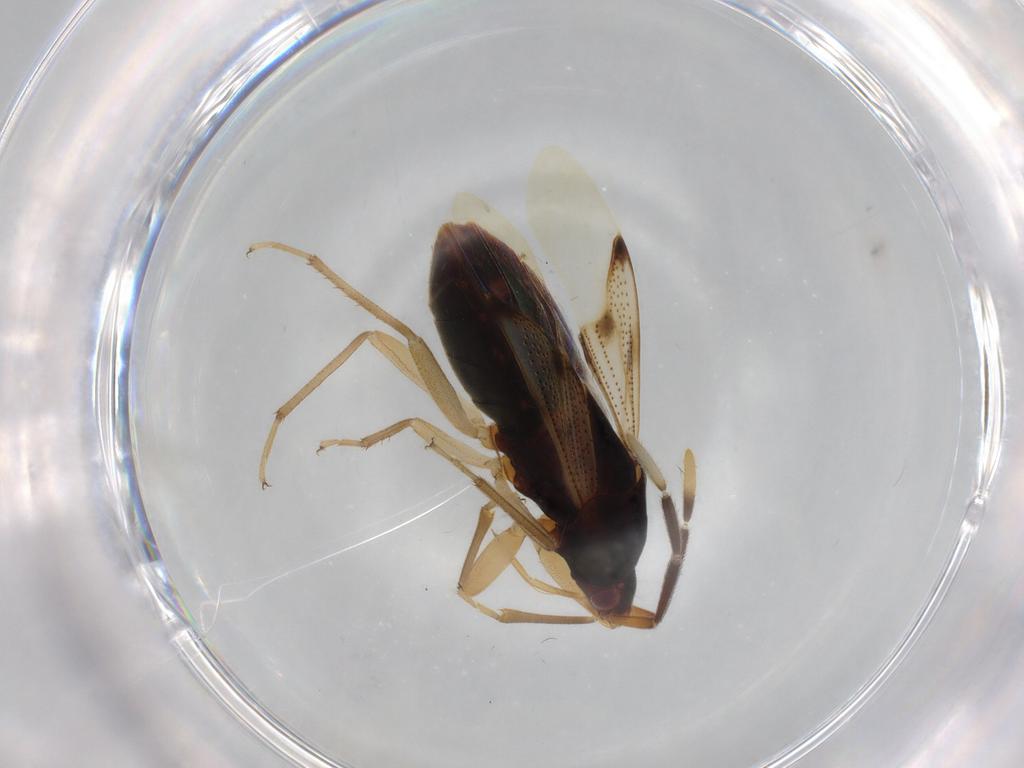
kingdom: Animalia
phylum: Arthropoda
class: Insecta
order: Hemiptera
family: Rhyparochromidae
